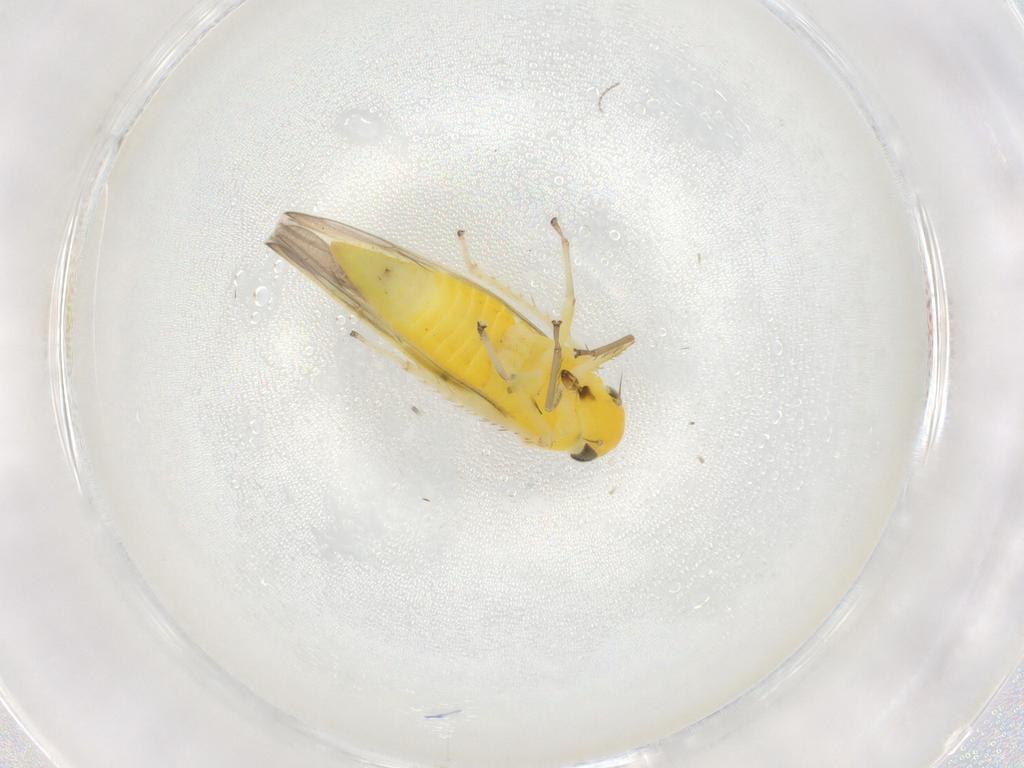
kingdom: Animalia
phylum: Arthropoda
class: Insecta
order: Hemiptera
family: Cicadellidae
